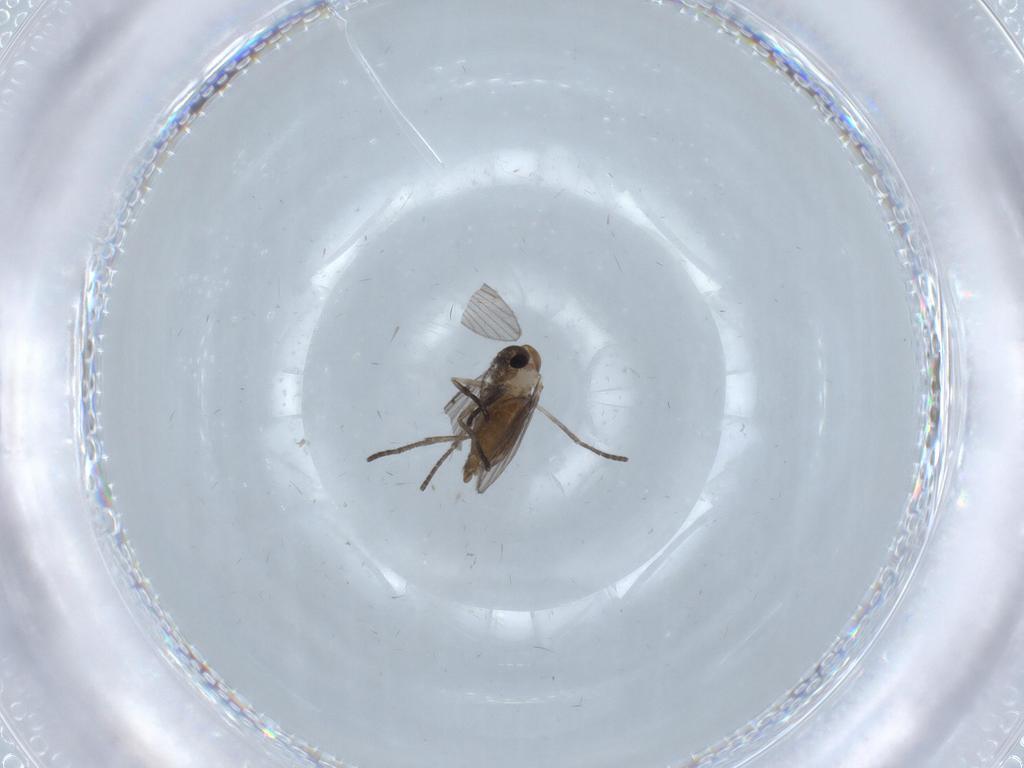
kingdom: Animalia
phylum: Arthropoda
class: Insecta
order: Diptera
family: Psychodidae
